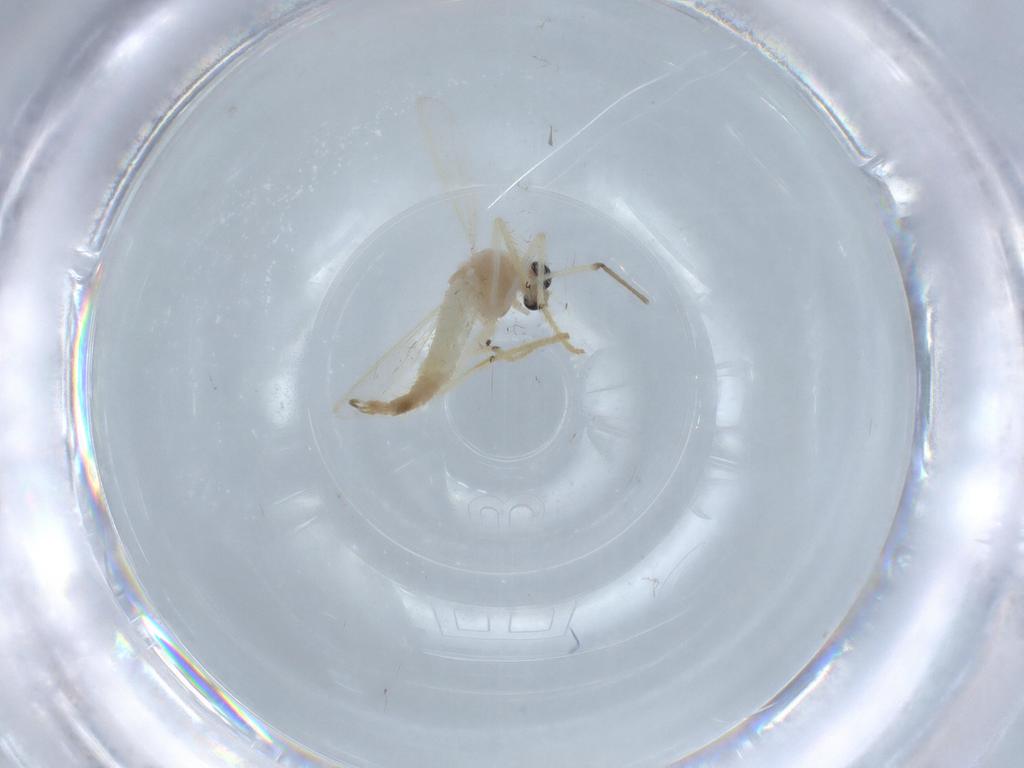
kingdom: Animalia
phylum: Arthropoda
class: Insecta
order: Diptera
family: Chironomidae
